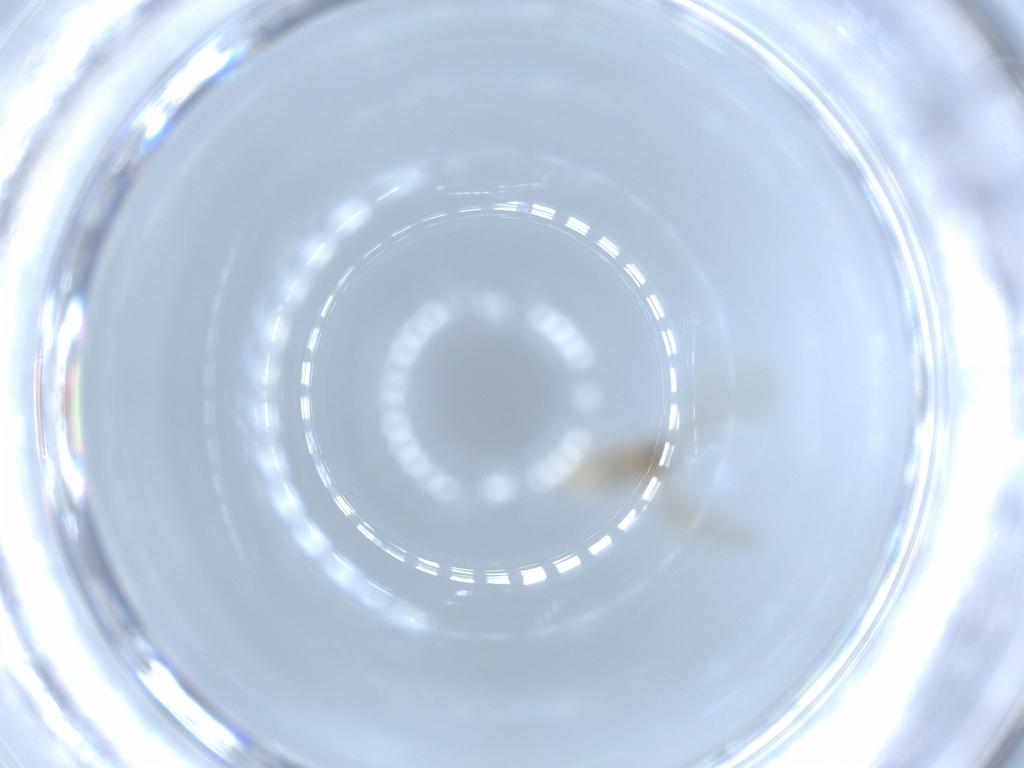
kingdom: Animalia
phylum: Arthropoda
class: Insecta
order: Diptera
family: Cecidomyiidae
